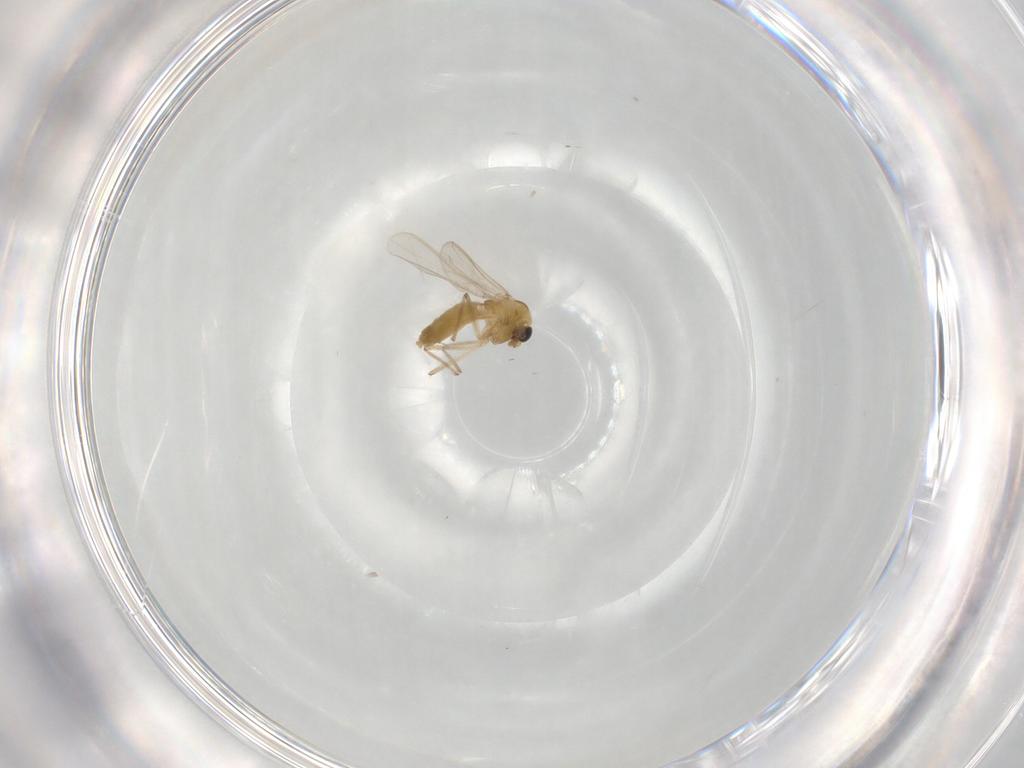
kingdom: Animalia
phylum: Arthropoda
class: Insecta
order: Diptera
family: Chironomidae
